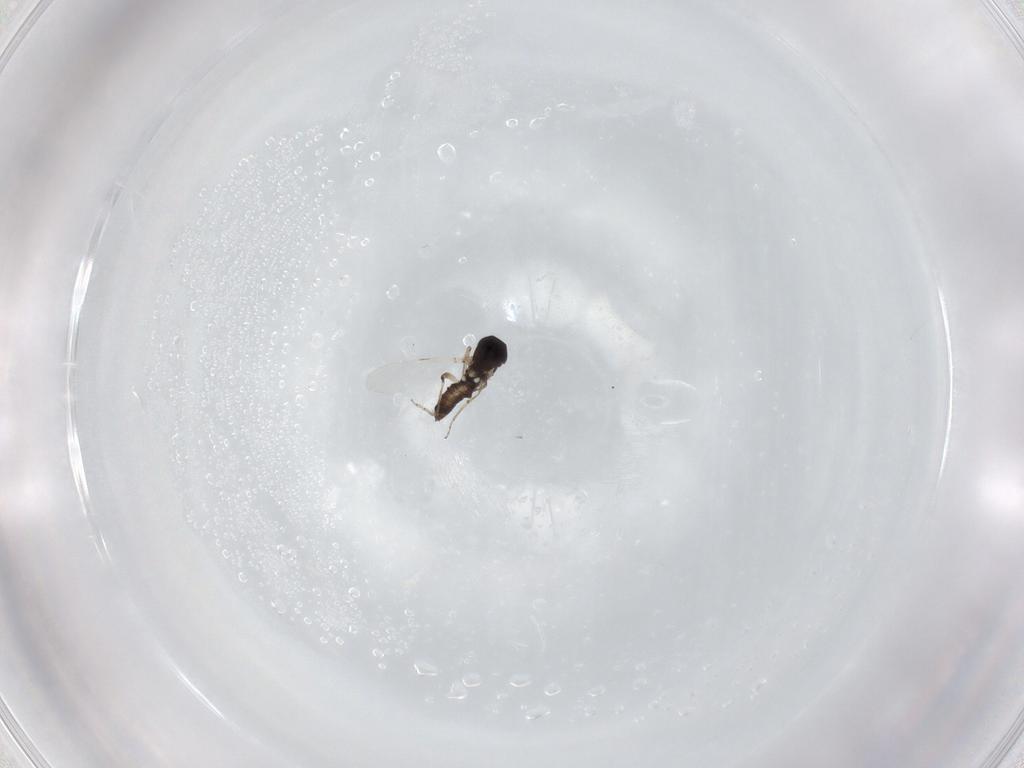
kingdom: Animalia
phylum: Arthropoda
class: Insecta
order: Diptera
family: Ceratopogonidae
